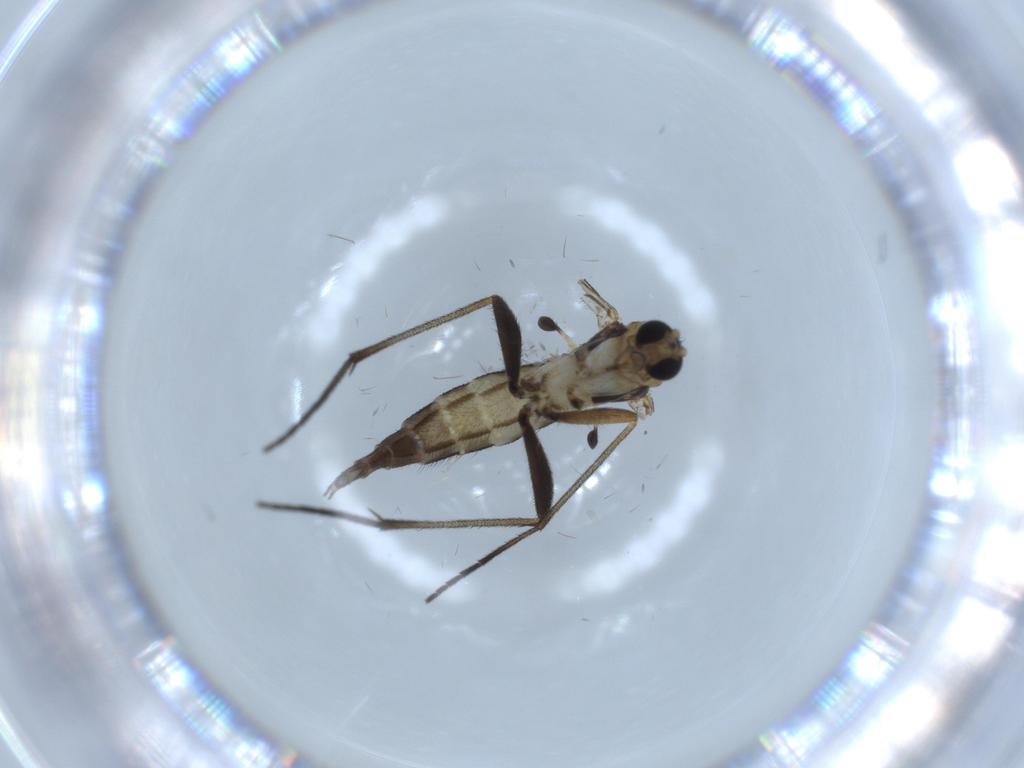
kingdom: Animalia
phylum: Arthropoda
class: Insecta
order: Diptera
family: Sciaridae
